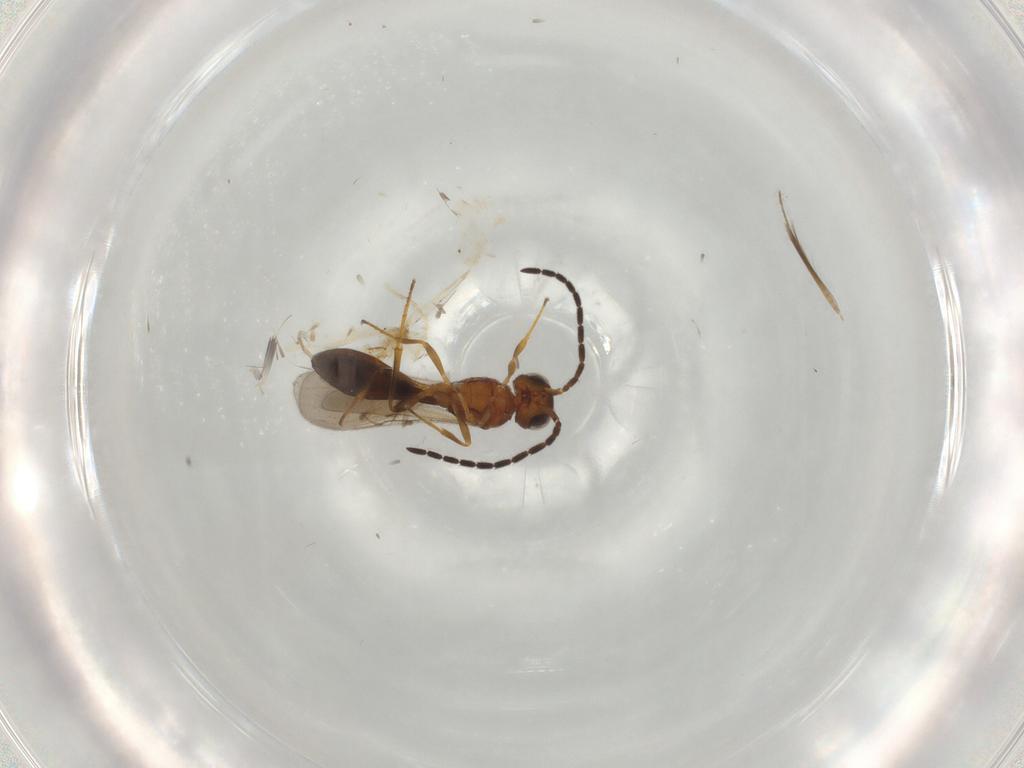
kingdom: Animalia
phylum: Arthropoda
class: Insecta
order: Hymenoptera
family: Scelionidae
